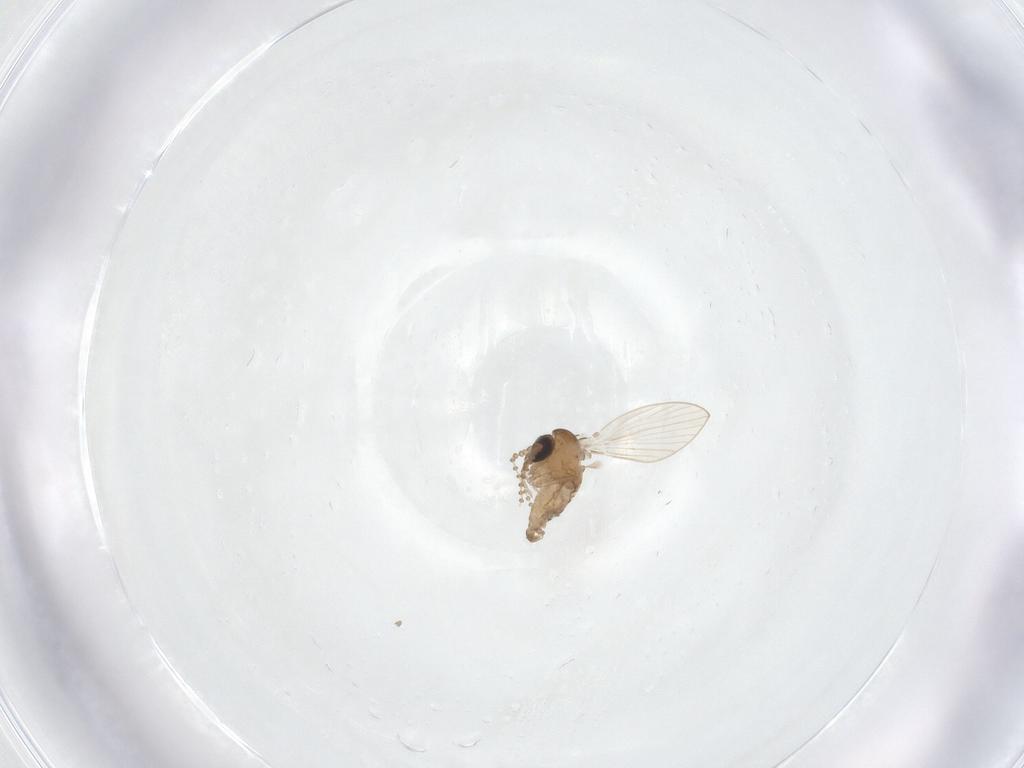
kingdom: Animalia
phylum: Arthropoda
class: Insecta
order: Diptera
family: Psychodidae
